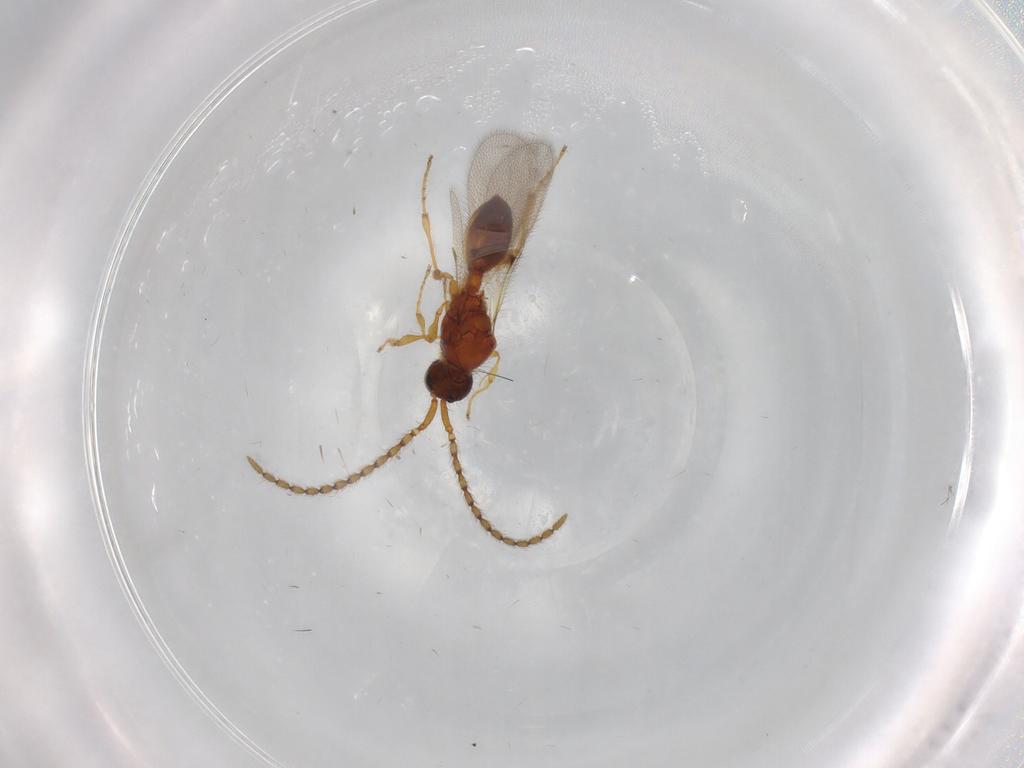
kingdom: Animalia
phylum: Arthropoda
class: Insecta
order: Hymenoptera
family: Diapriidae
